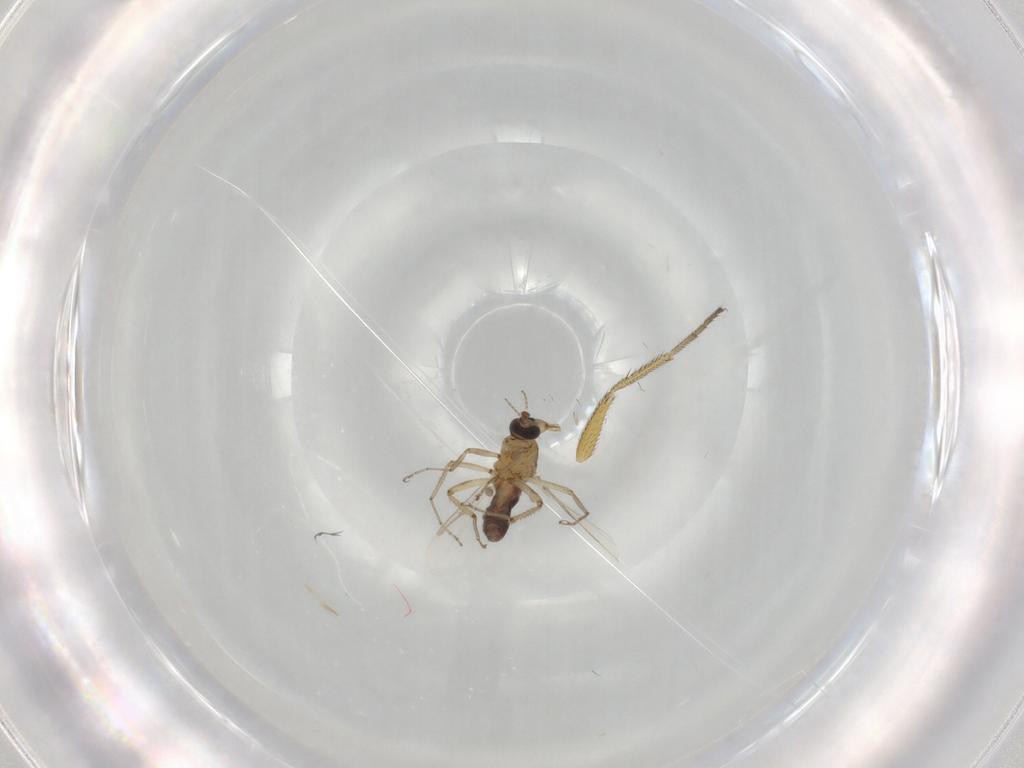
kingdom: Animalia
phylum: Arthropoda
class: Insecta
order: Diptera
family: Ceratopogonidae
